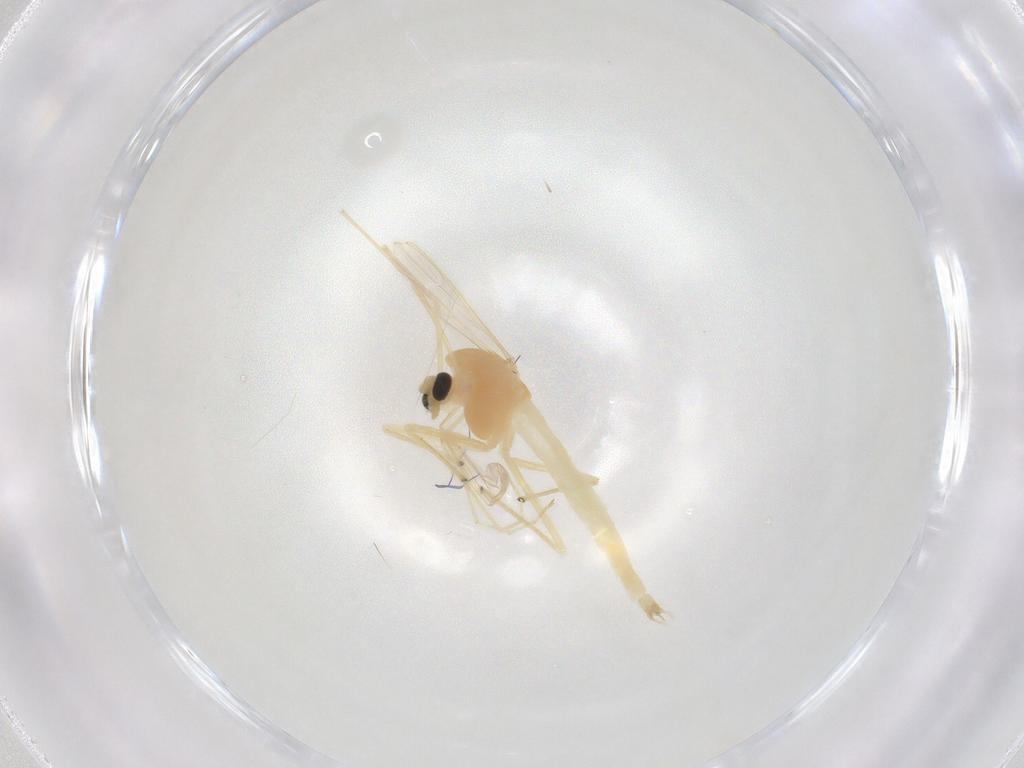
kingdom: Animalia
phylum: Arthropoda
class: Insecta
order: Diptera
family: Chironomidae
